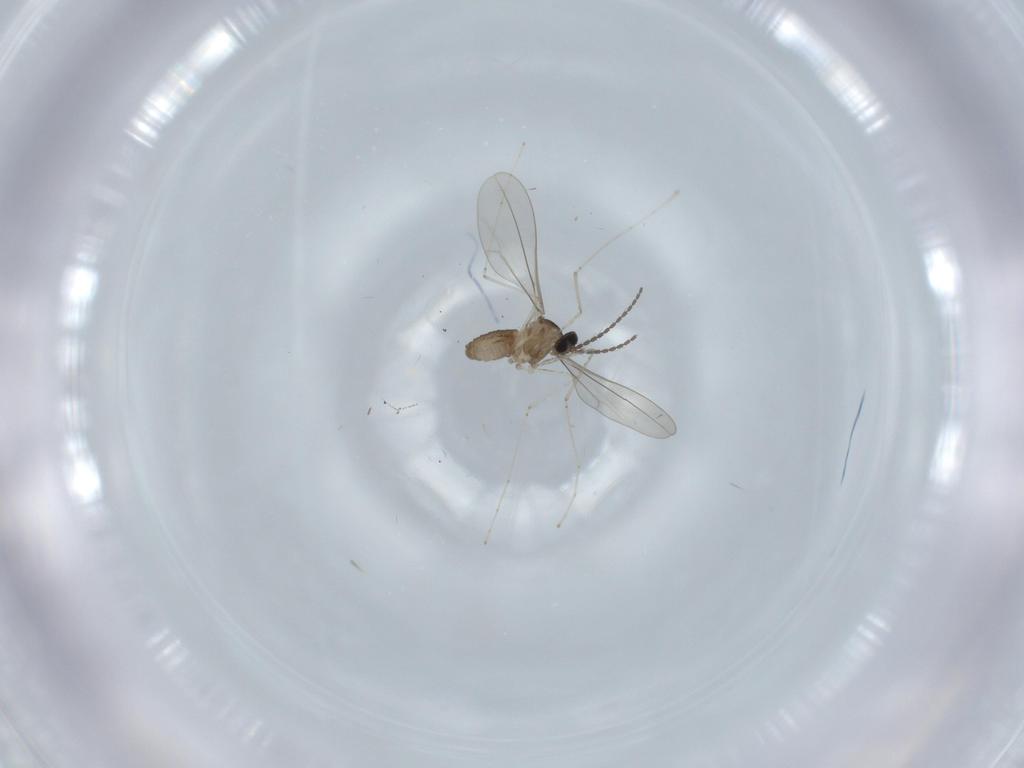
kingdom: Animalia
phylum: Arthropoda
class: Insecta
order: Diptera
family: Cecidomyiidae
